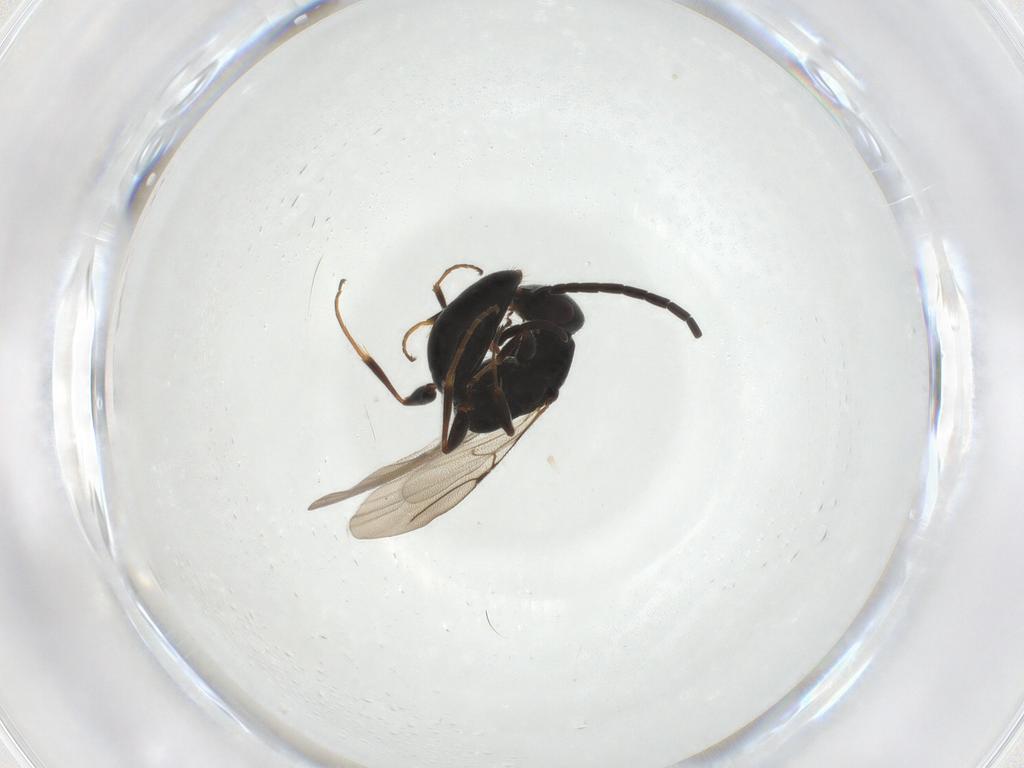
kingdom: Animalia
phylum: Arthropoda
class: Insecta
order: Hymenoptera
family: Bethylidae
